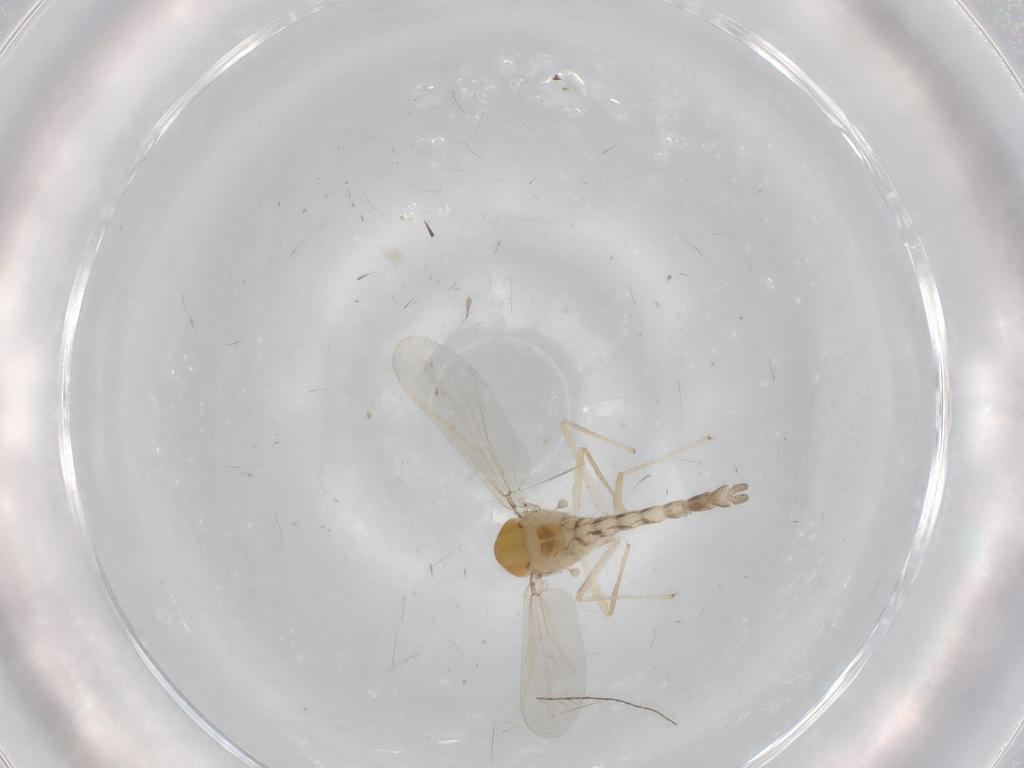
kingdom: Animalia
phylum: Arthropoda
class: Insecta
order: Diptera
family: Chironomidae
